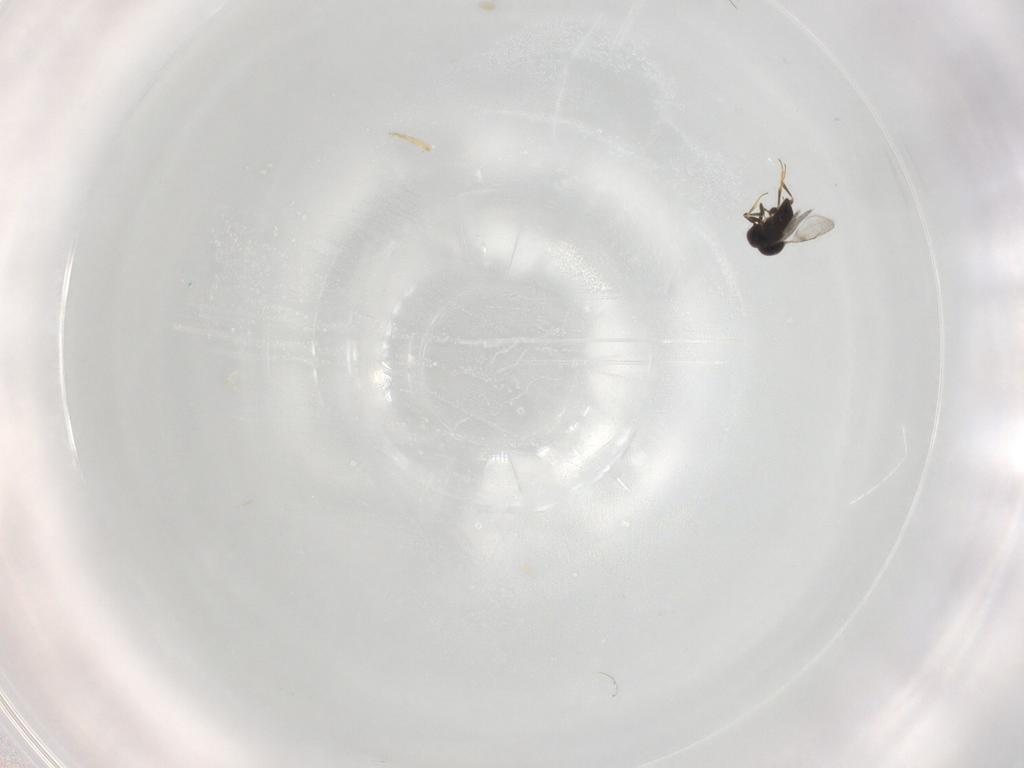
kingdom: Animalia
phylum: Arthropoda
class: Insecta
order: Hymenoptera
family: Ceraphronidae
